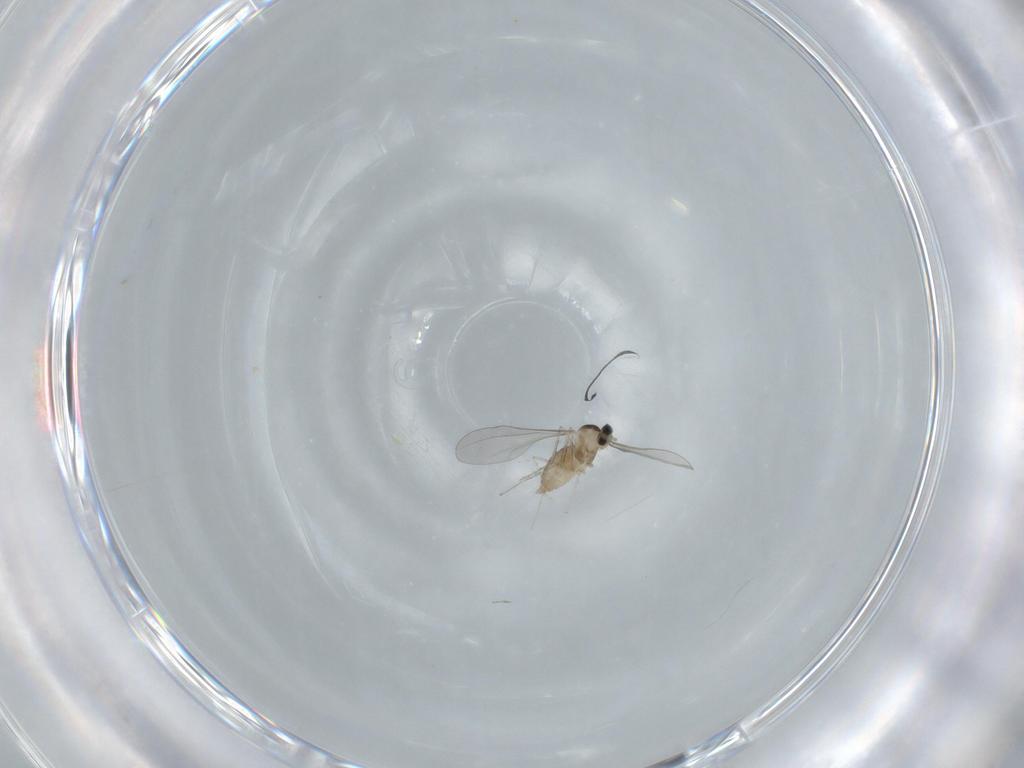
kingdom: Animalia
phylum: Arthropoda
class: Insecta
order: Diptera
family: Cecidomyiidae
